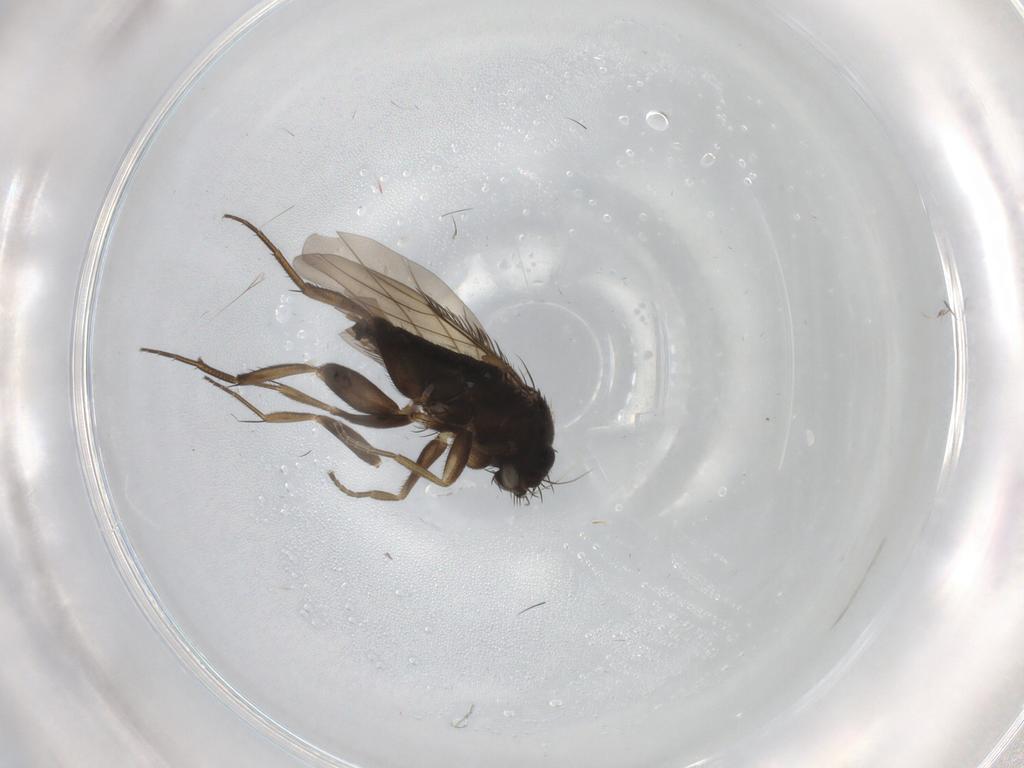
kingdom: Animalia
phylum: Arthropoda
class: Insecta
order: Diptera
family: Phoridae
